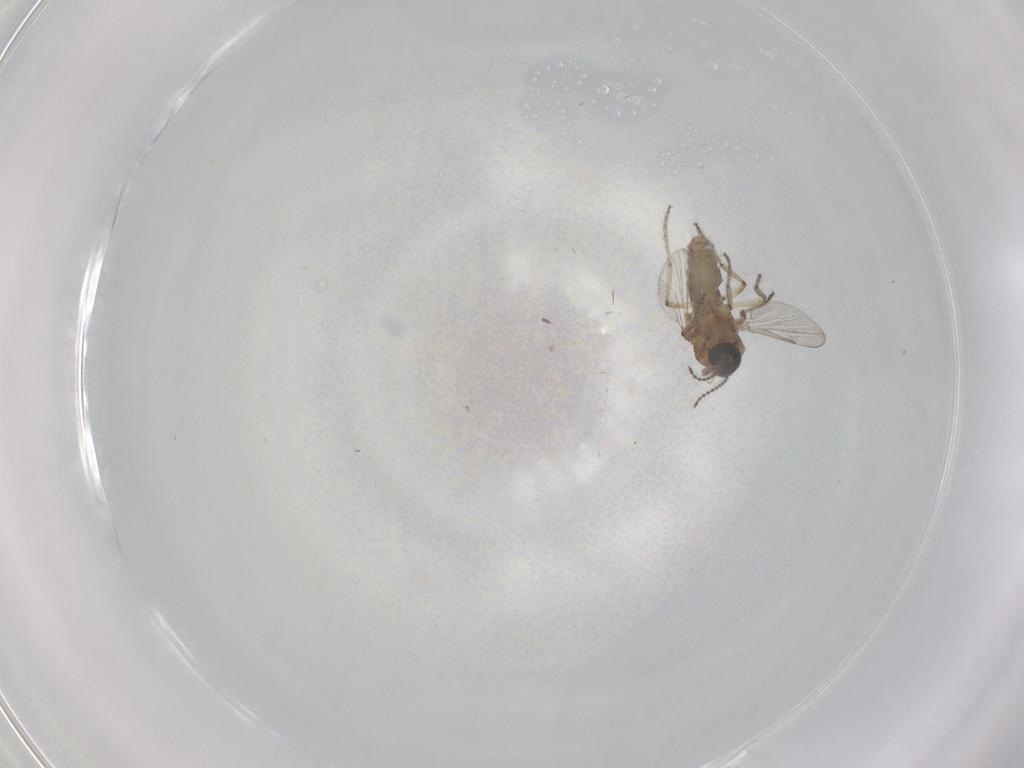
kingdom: Animalia
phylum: Arthropoda
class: Insecta
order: Diptera
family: Ceratopogonidae
